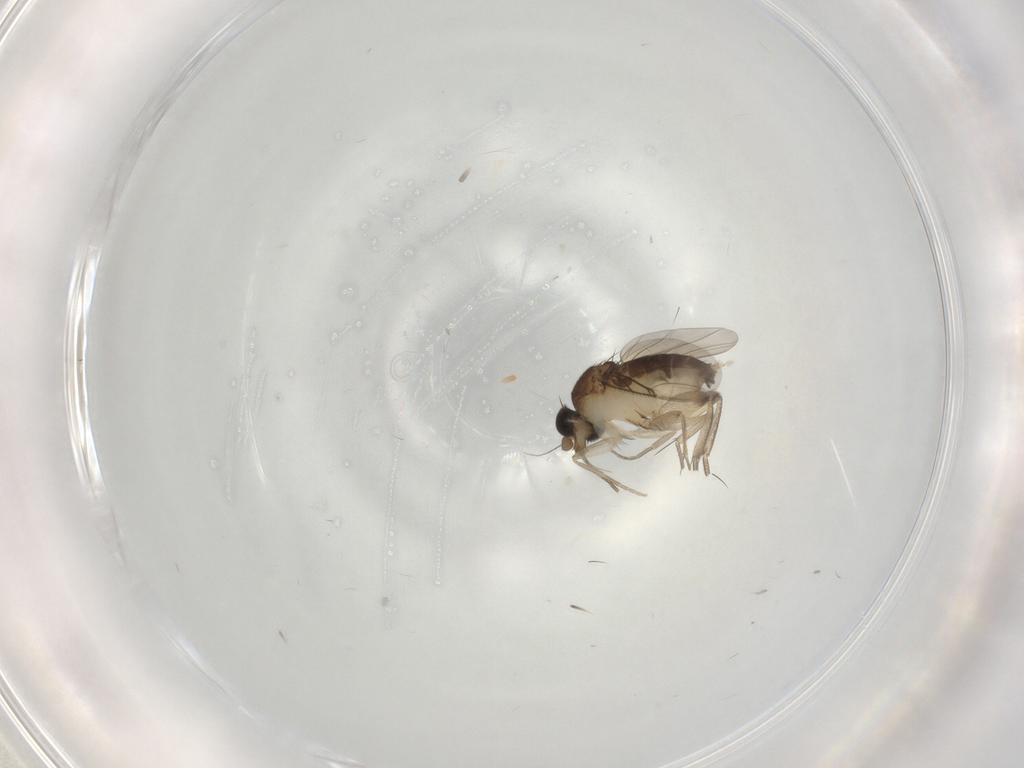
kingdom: Animalia
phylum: Arthropoda
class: Insecta
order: Diptera
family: Phoridae
